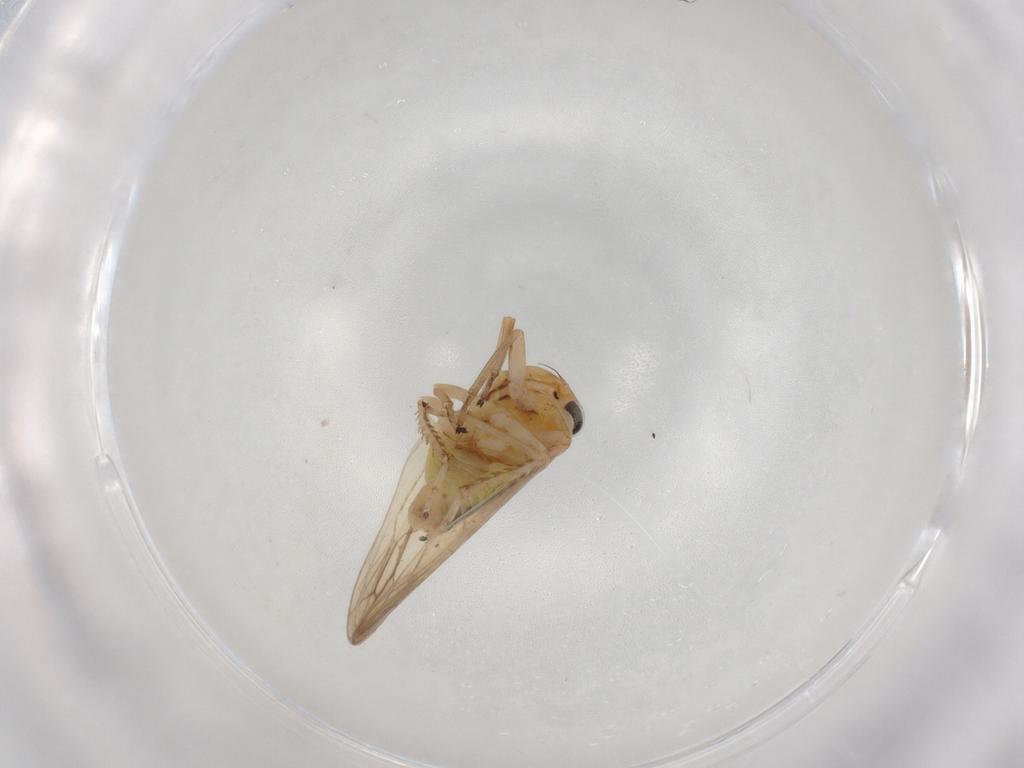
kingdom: Animalia
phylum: Arthropoda
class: Insecta
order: Hemiptera
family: Cicadellidae
